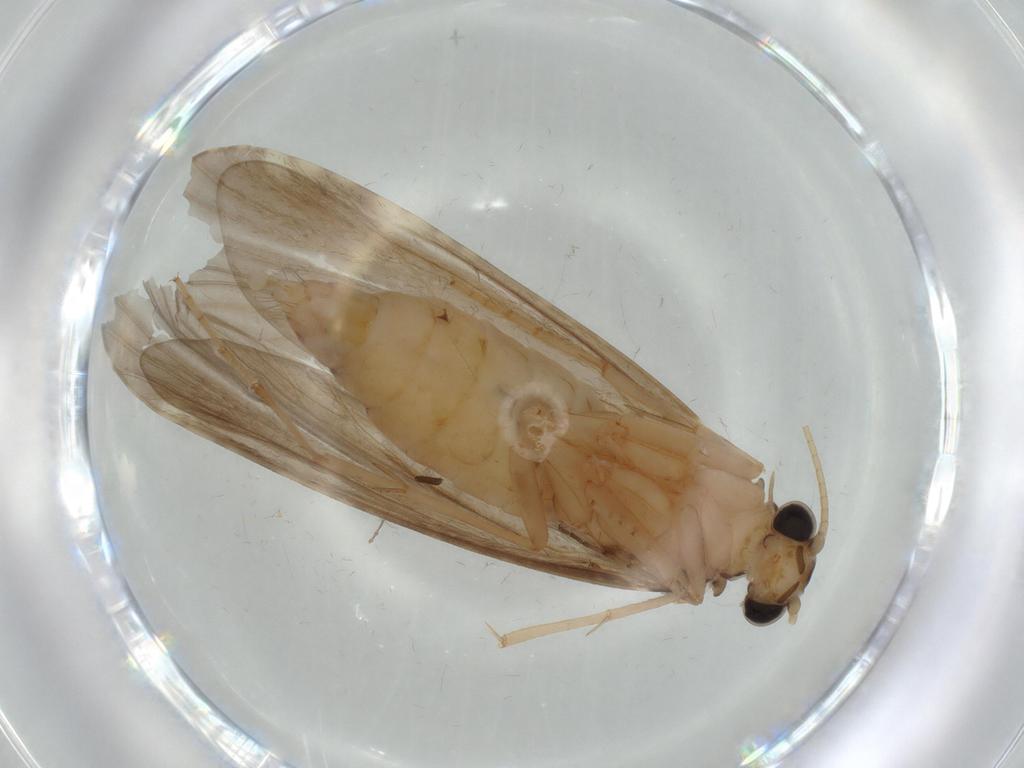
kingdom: Animalia
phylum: Arthropoda
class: Insecta
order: Trichoptera
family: Ecnomidae
